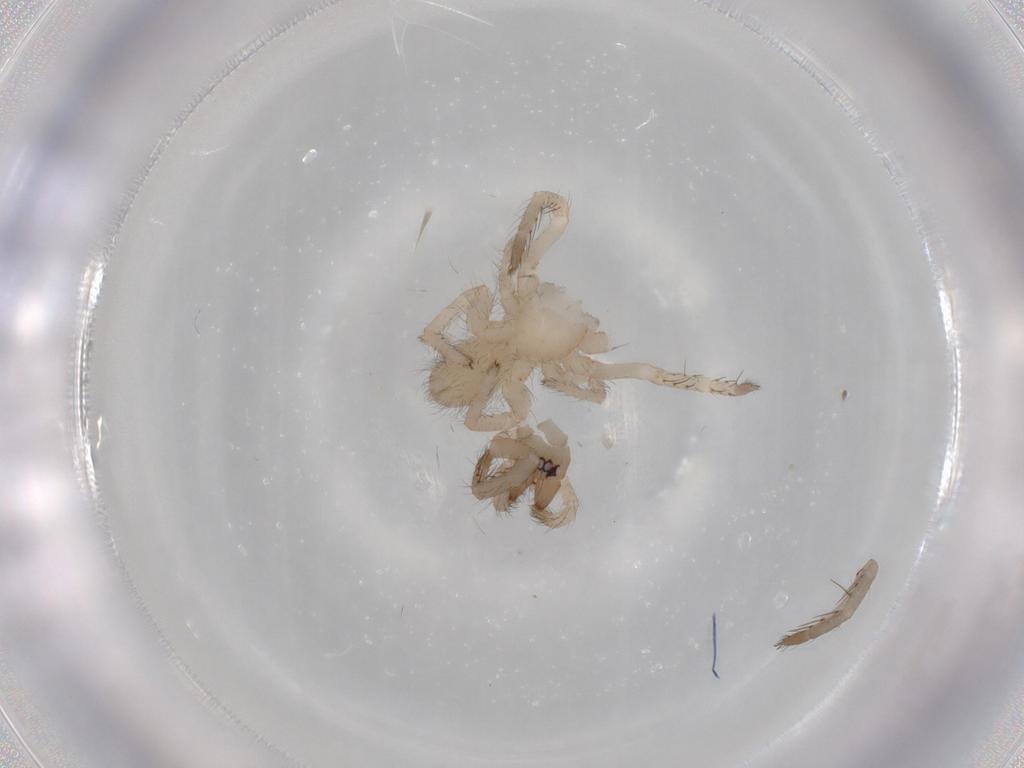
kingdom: Animalia
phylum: Arthropoda
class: Arachnida
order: Araneae
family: Segestriidae
